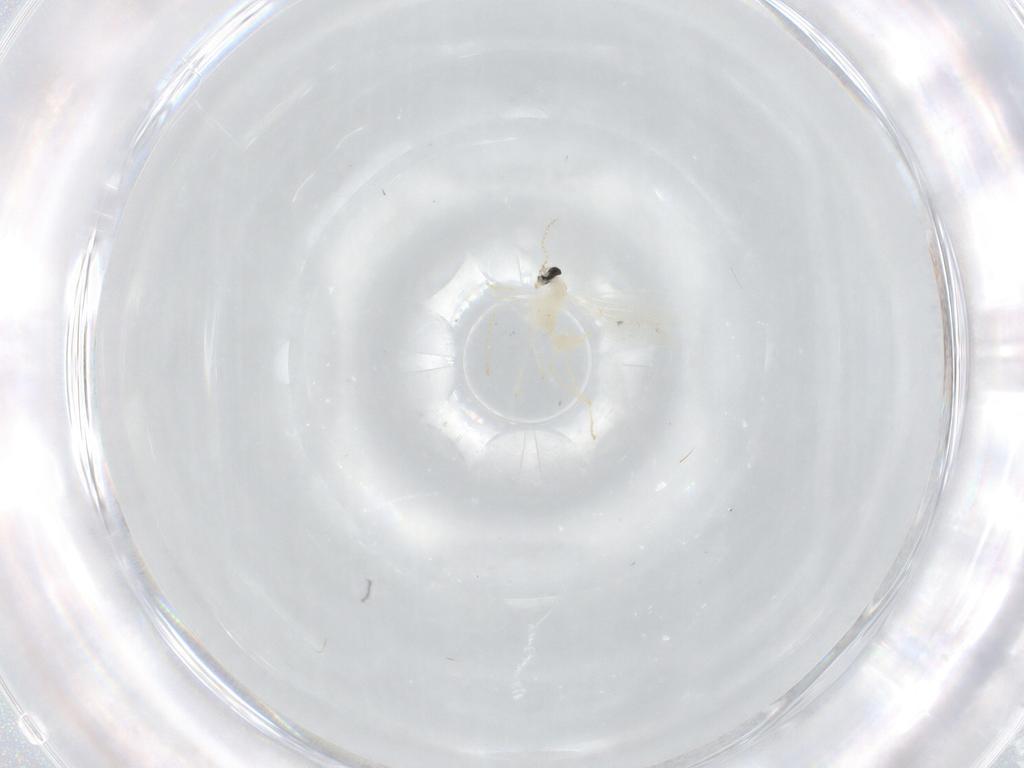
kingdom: Animalia
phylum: Arthropoda
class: Insecta
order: Diptera
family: Cecidomyiidae
